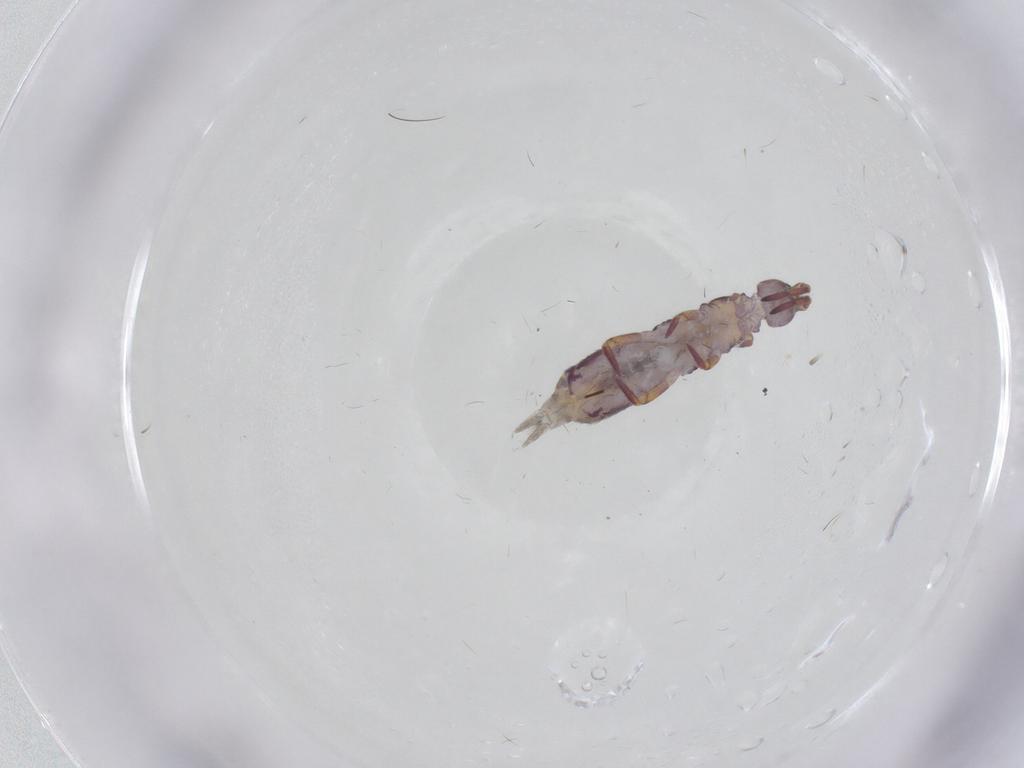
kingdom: Animalia
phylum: Arthropoda
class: Collembola
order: Entomobryomorpha
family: Isotomidae
